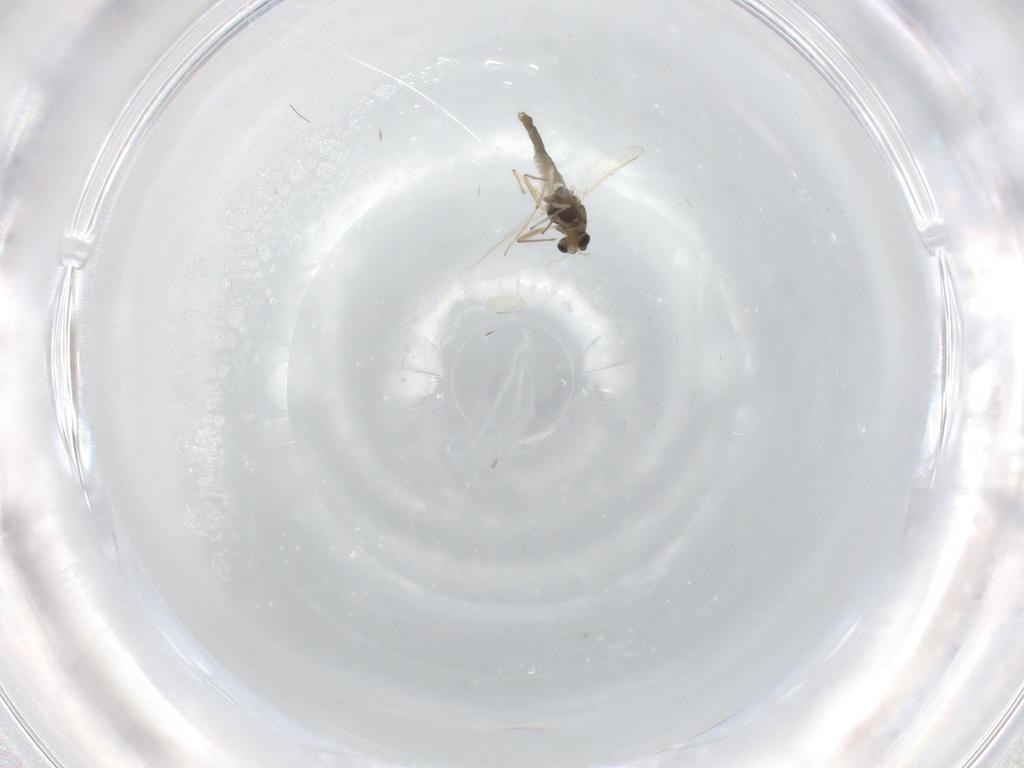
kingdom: Animalia
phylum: Arthropoda
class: Insecta
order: Diptera
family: Chironomidae
